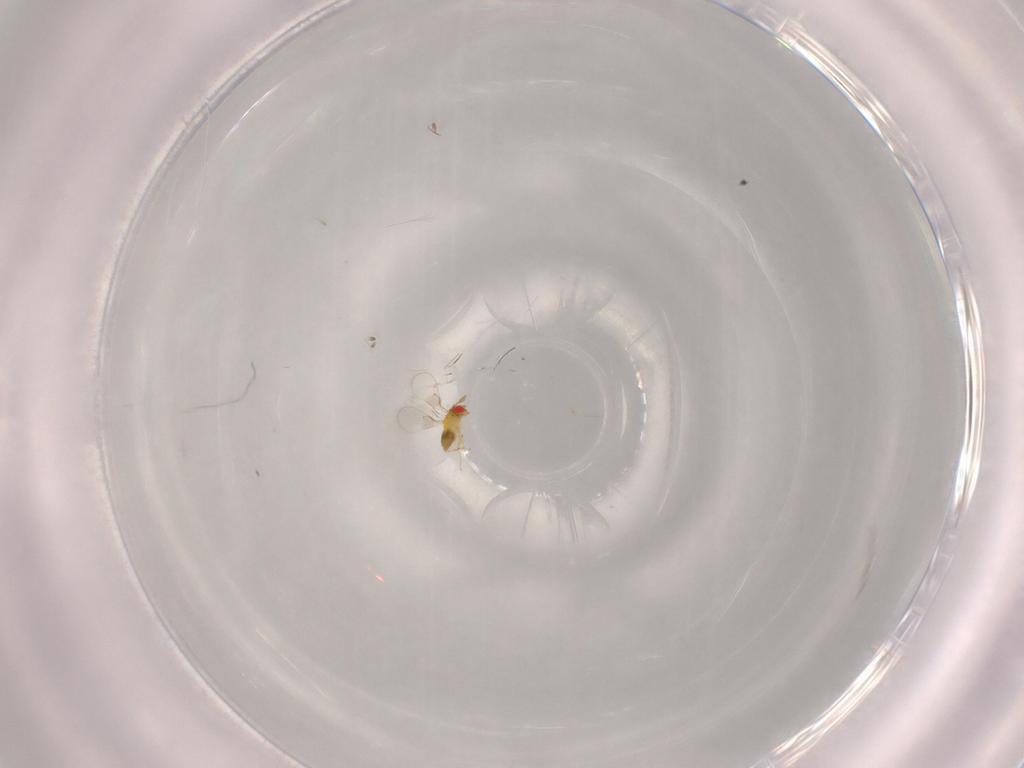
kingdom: Animalia
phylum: Arthropoda
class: Insecta
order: Hymenoptera
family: Trichogrammatidae
